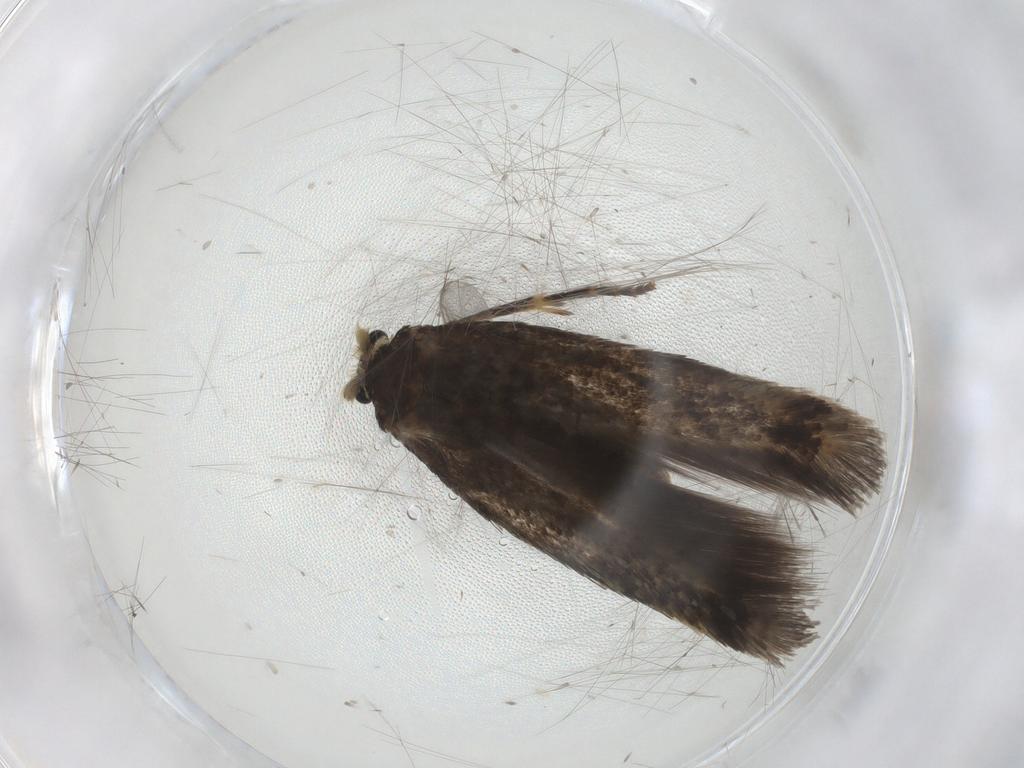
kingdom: Animalia
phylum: Arthropoda
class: Insecta
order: Lepidoptera
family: Nepticulidae
